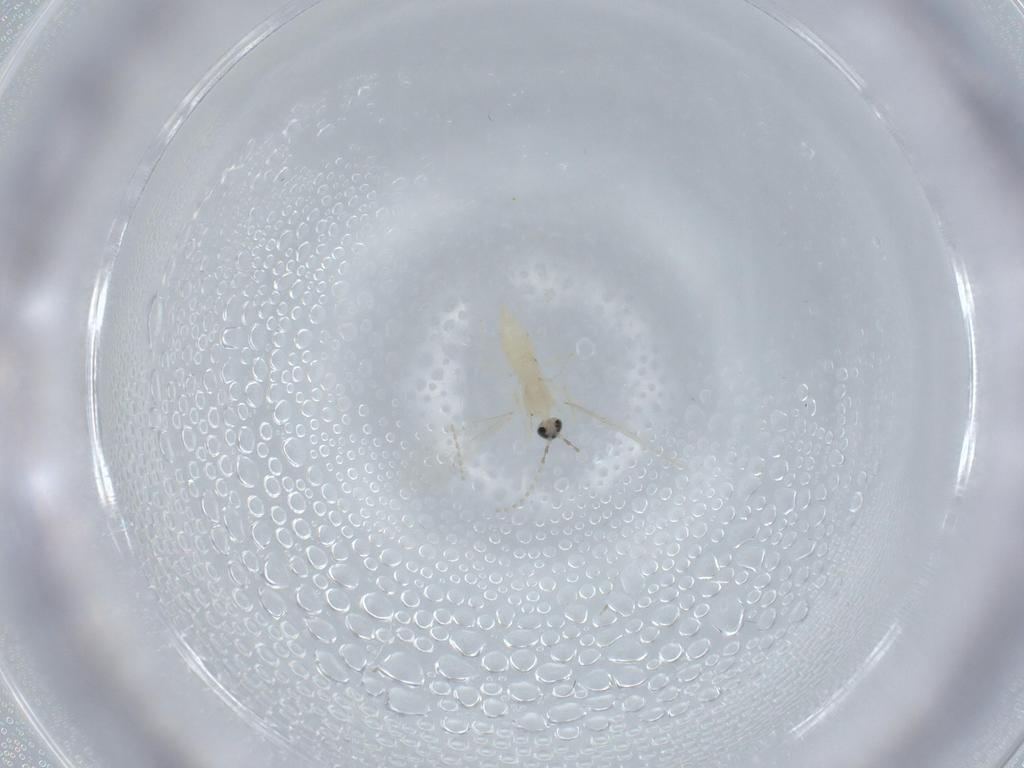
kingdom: Animalia
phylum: Arthropoda
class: Insecta
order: Diptera
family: Cecidomyiidae
